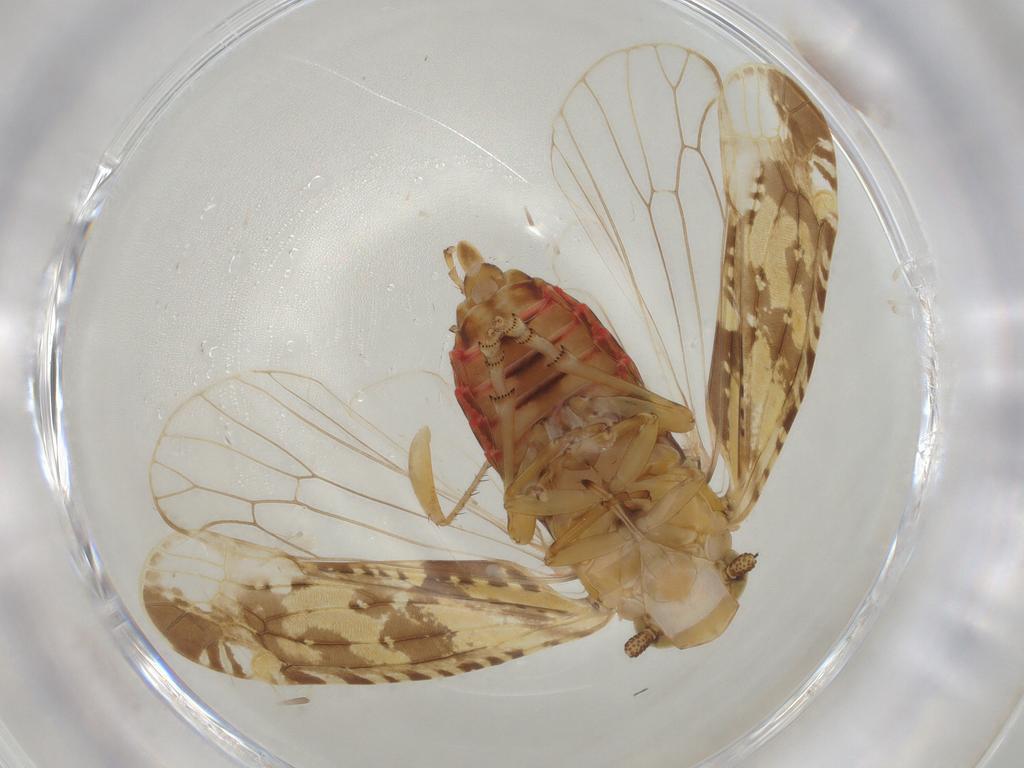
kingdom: Animalia
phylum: Arthropoda
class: Insecta
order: Hemiptera
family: Achilidae
